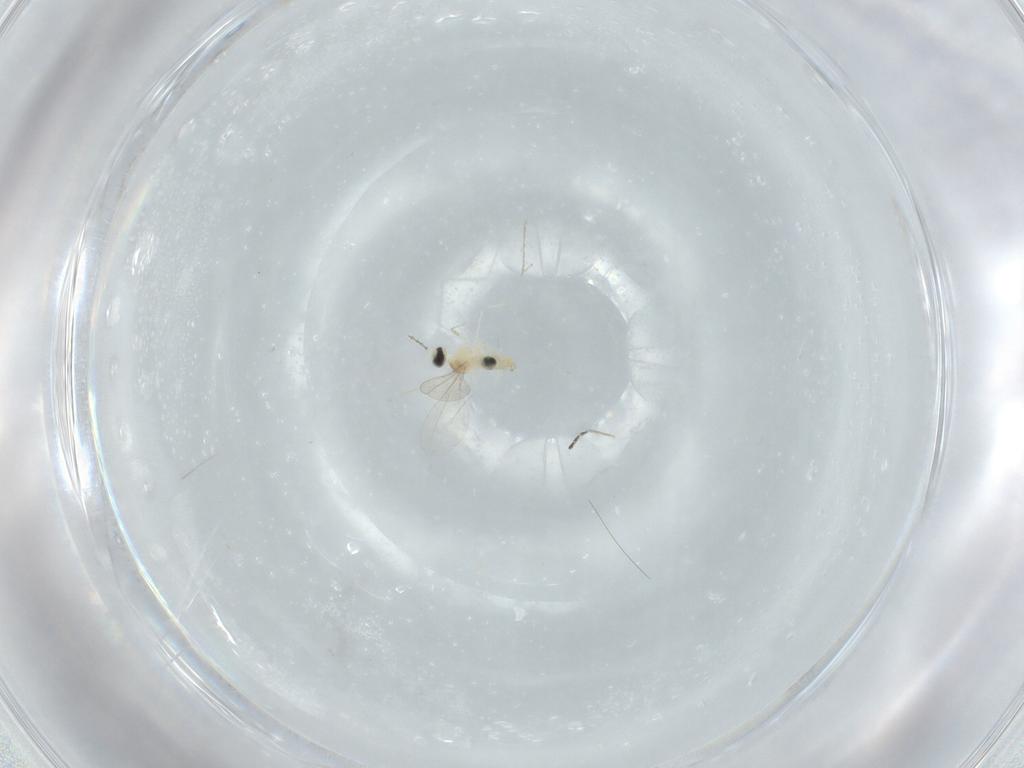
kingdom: Animalia
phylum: Arthropoda
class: Insecta
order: Diptera
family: Cecidomyiidae
